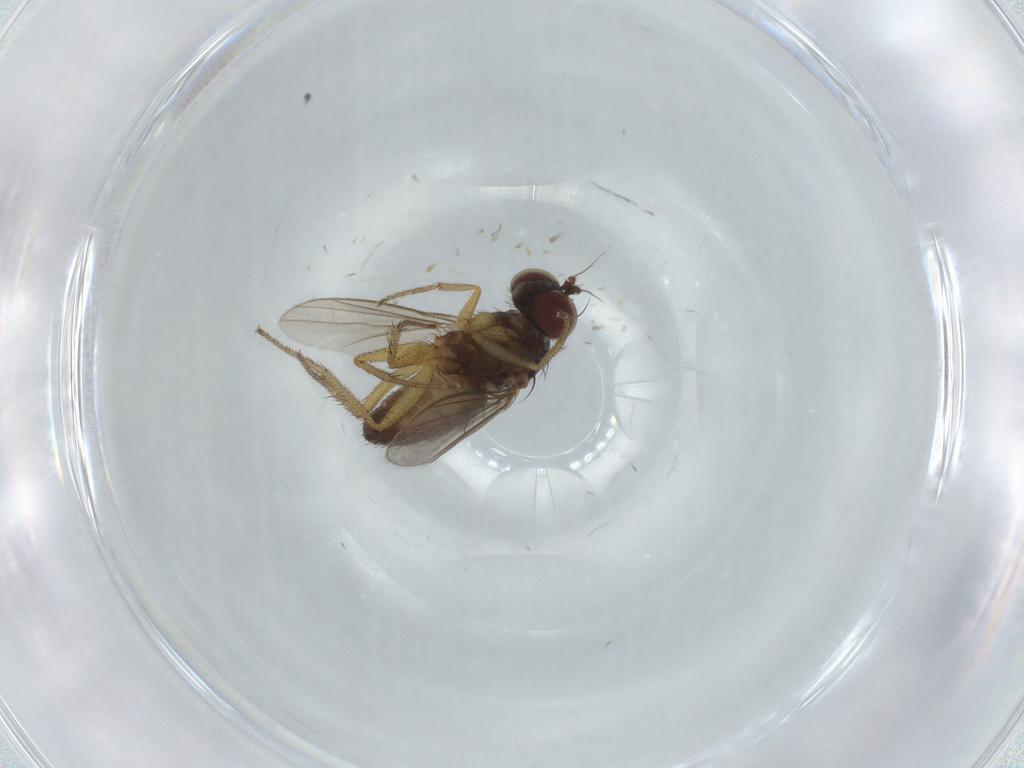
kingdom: Animalia
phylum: Arthropoda
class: Insecta
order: Diptera
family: Dolichopodidae
